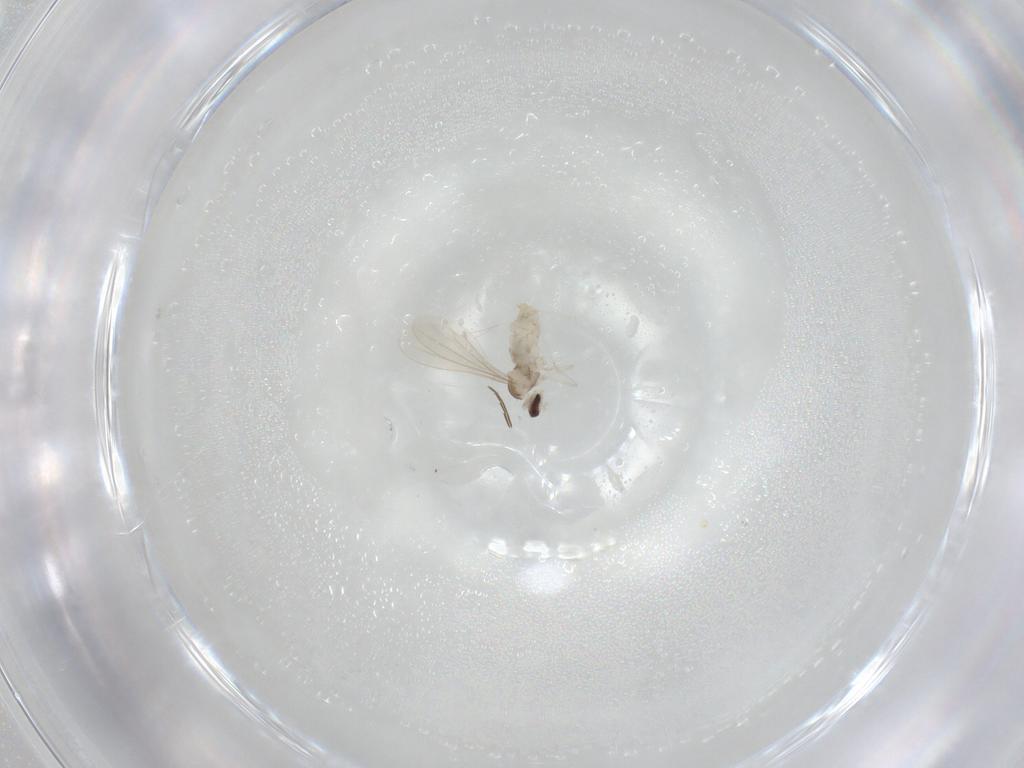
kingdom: Animalia
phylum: Arthropoda
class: Insecta
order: Diptera
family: Cecidomyiidae
